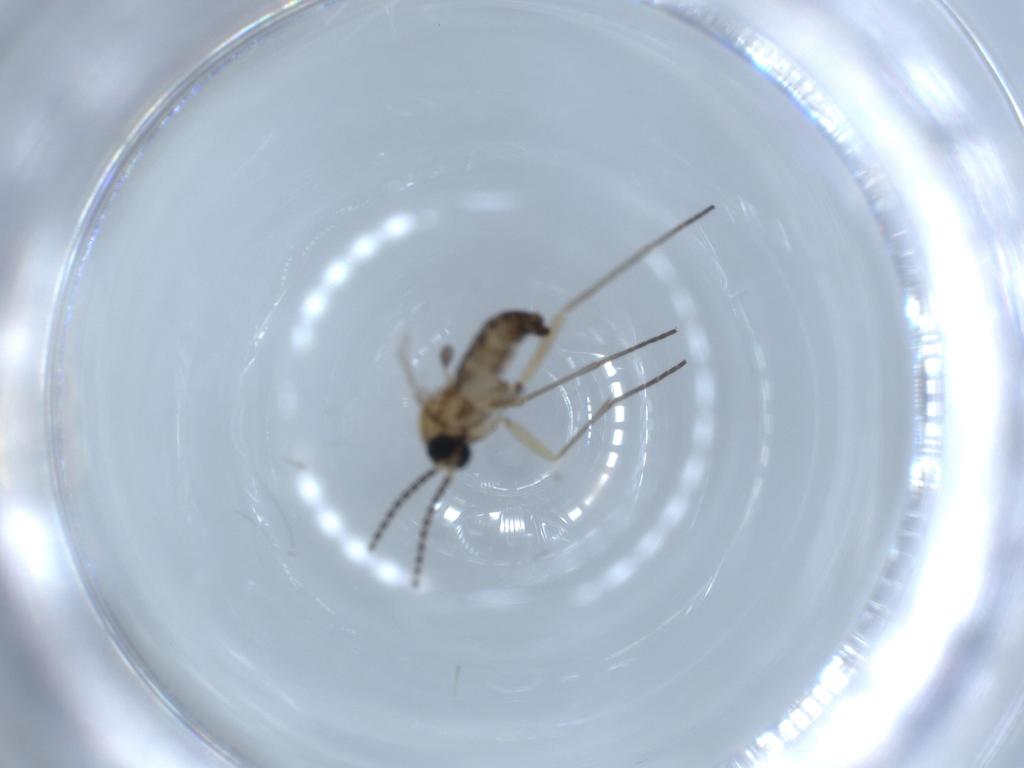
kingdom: Animalia
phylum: Arthropoda
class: Insecta
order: Diptera
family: Sciaridae
